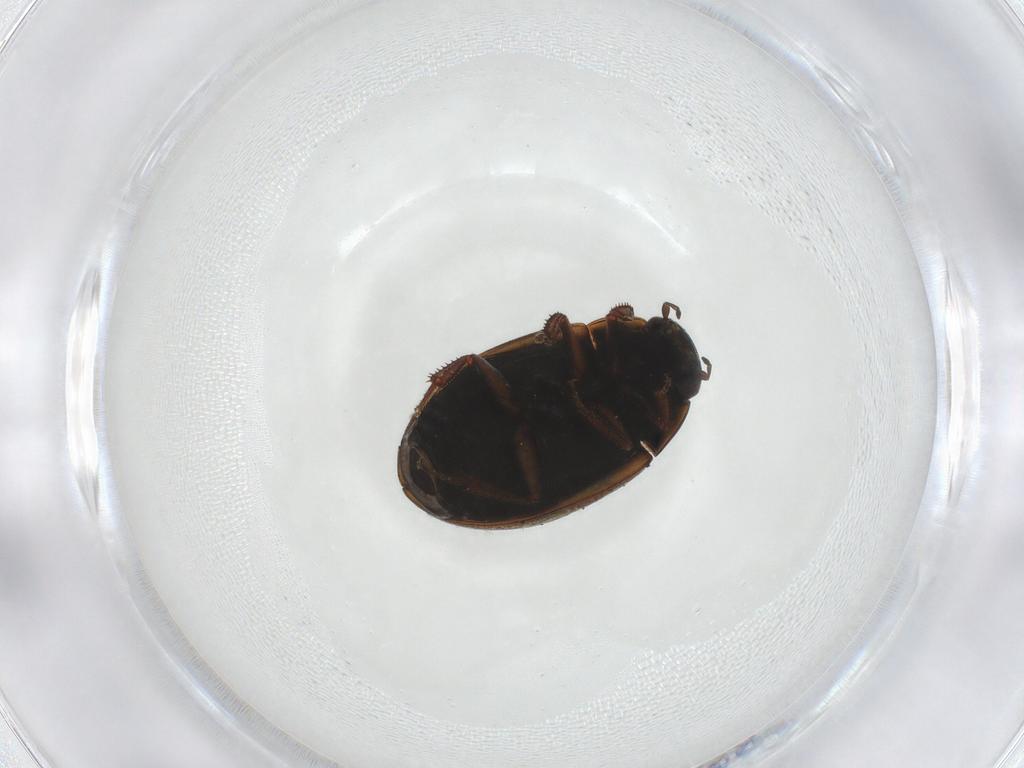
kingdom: Animalia
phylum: Arthropoda
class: Insecta
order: Coleoptera
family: Hydrophilidae
